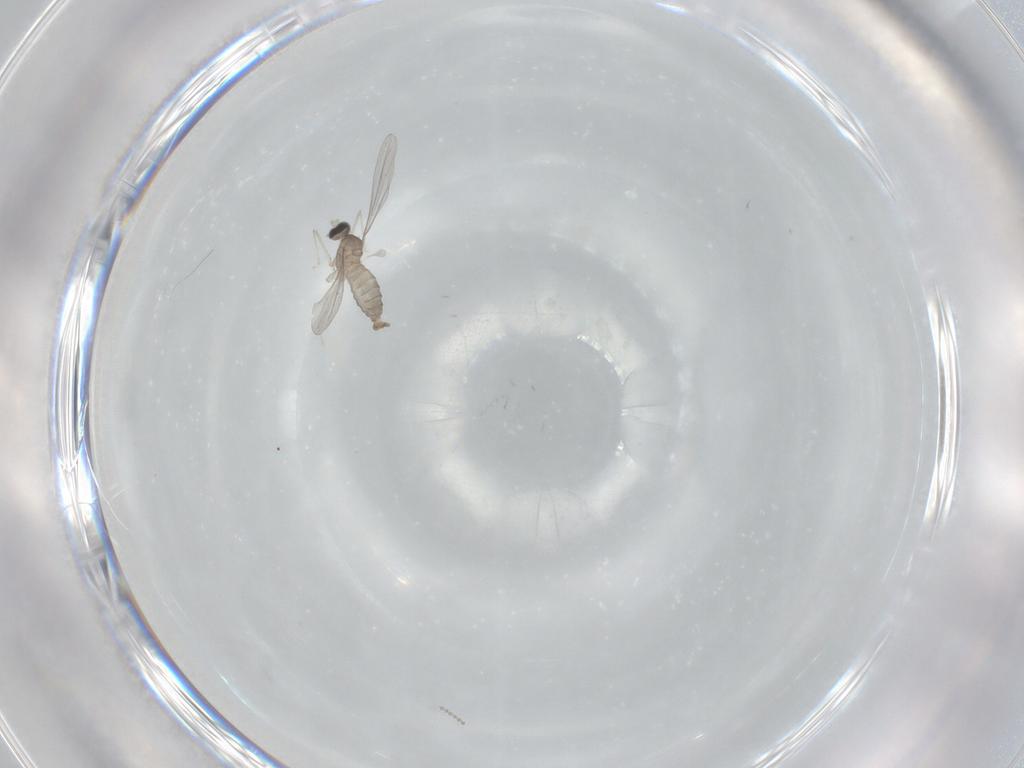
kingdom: Animalia
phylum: Arthropoda
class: Insecta
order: Diptera
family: Cecidomyiidae
